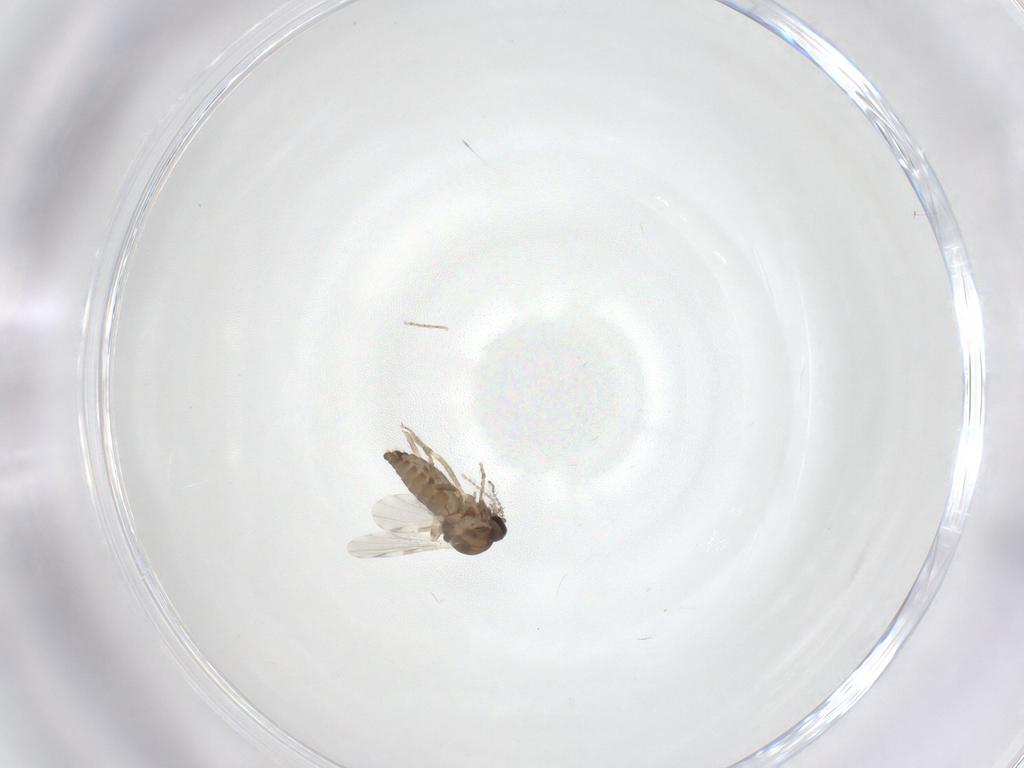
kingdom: Animalia
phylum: Arthropoda
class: Insecta
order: Diptera
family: Ceratopogonidae
